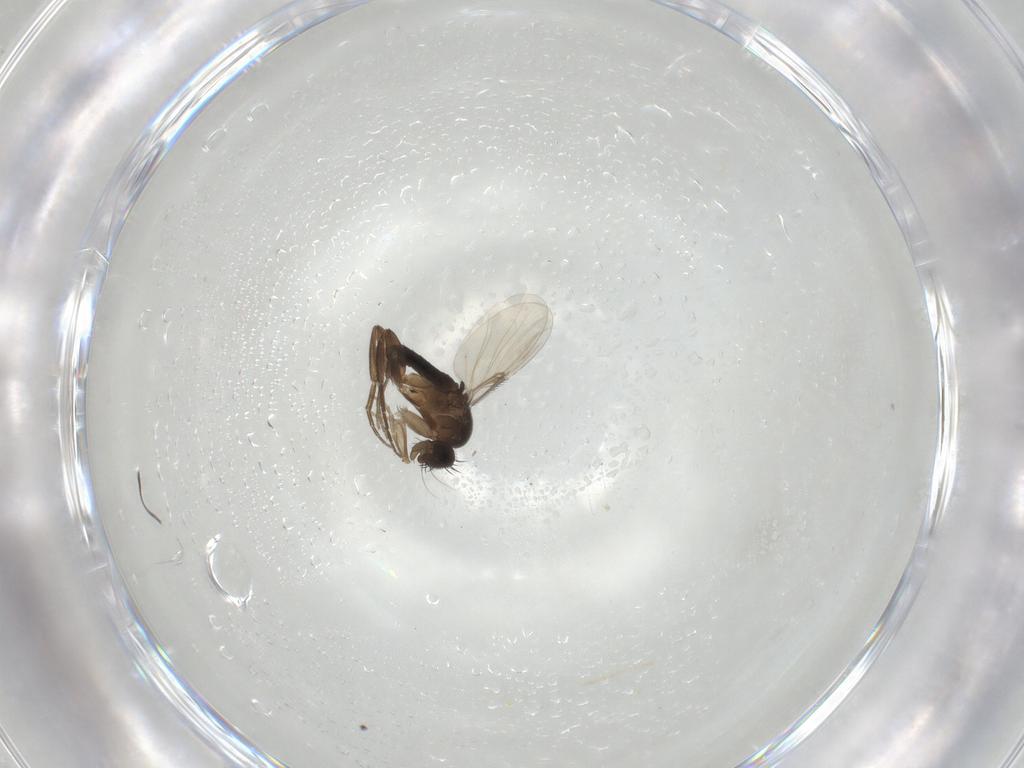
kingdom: Animalia
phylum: Arthropoda
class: Insecta
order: Diptera
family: Phoridae
